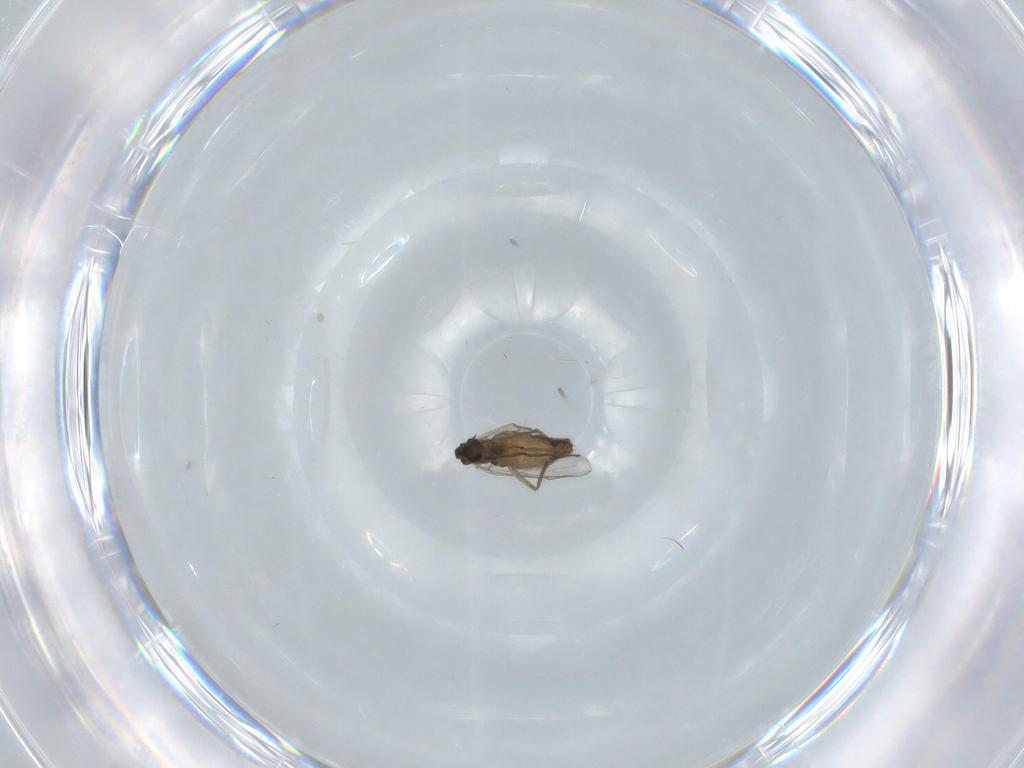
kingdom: Animalia
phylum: Arthropoda
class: Insecta
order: Diptera
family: Chironomidae
